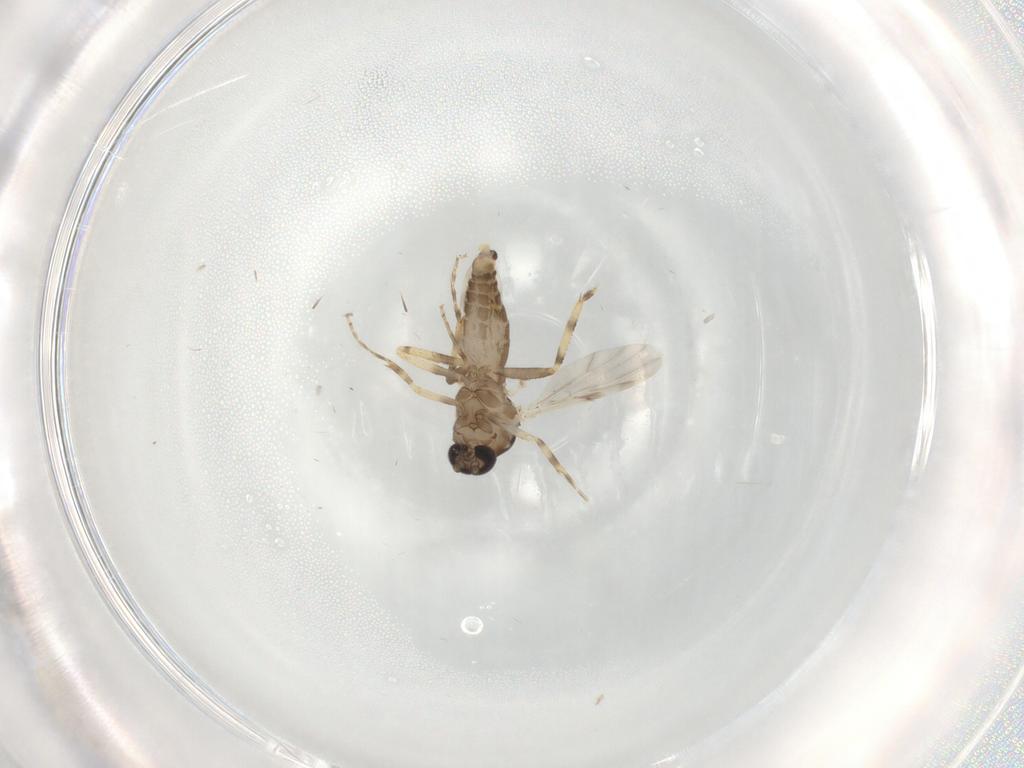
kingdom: Animalia
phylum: Arthropoda
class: Insecta
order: Diptera
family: Ceratopogonidae
